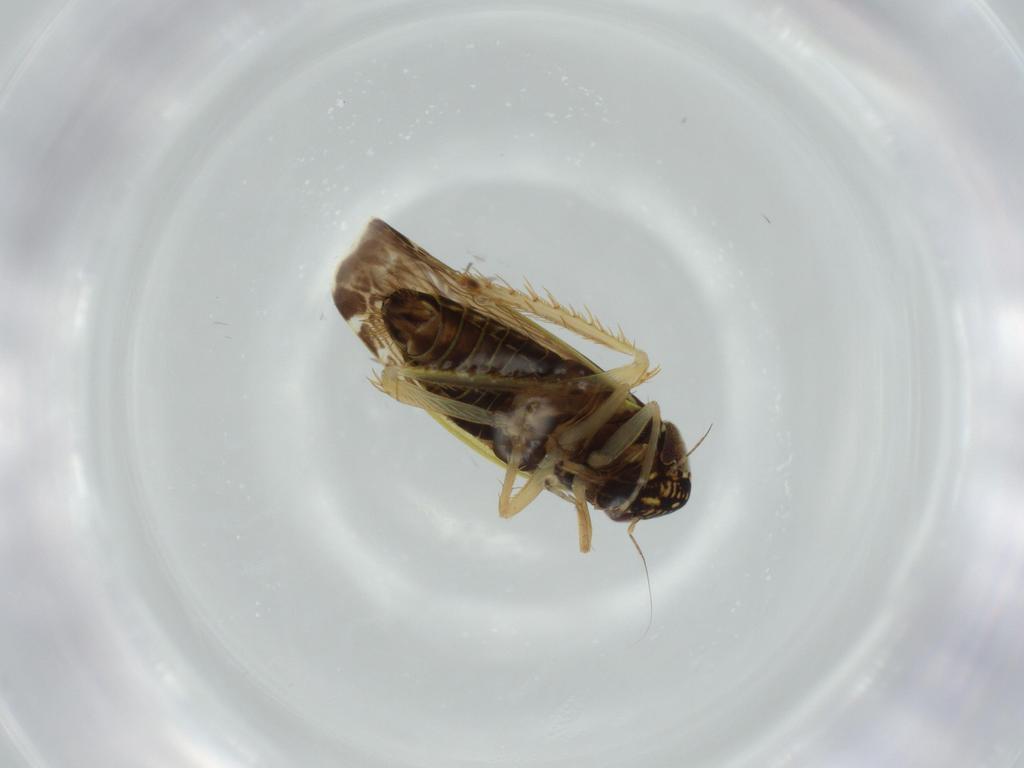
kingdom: Animalia
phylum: Arthropoda
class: Insecta
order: Hemiptera
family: Cicadellidae
